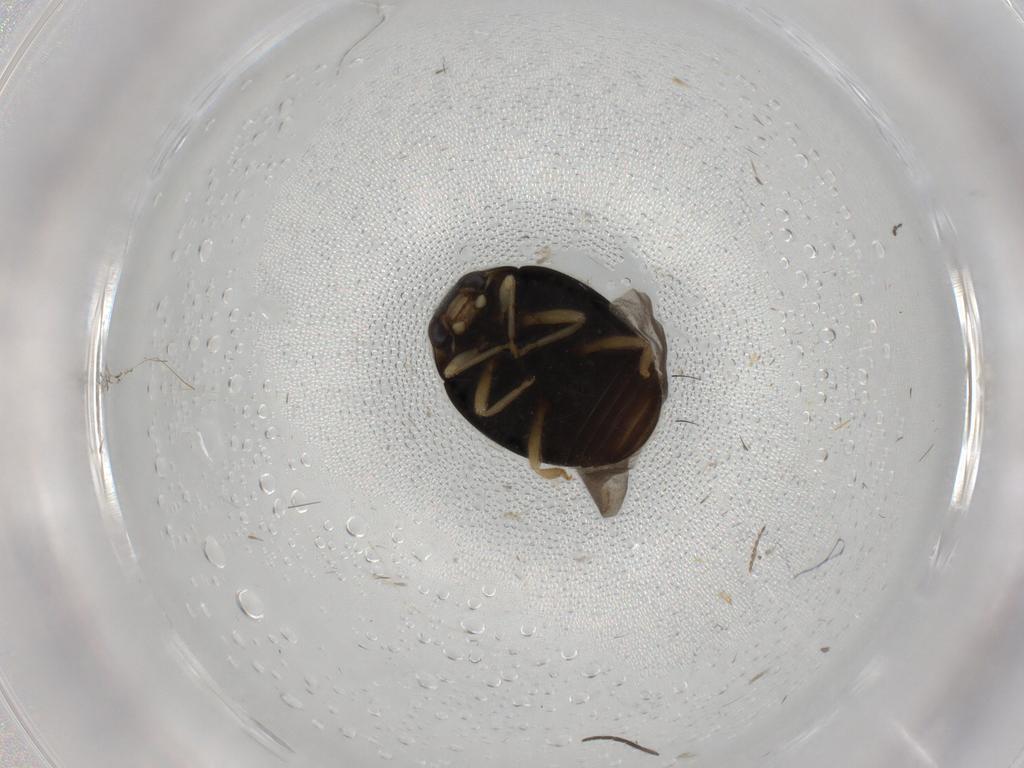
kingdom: Animalia
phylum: Arthropoda
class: Insecta
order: Coleoptera
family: Coccinellidae
